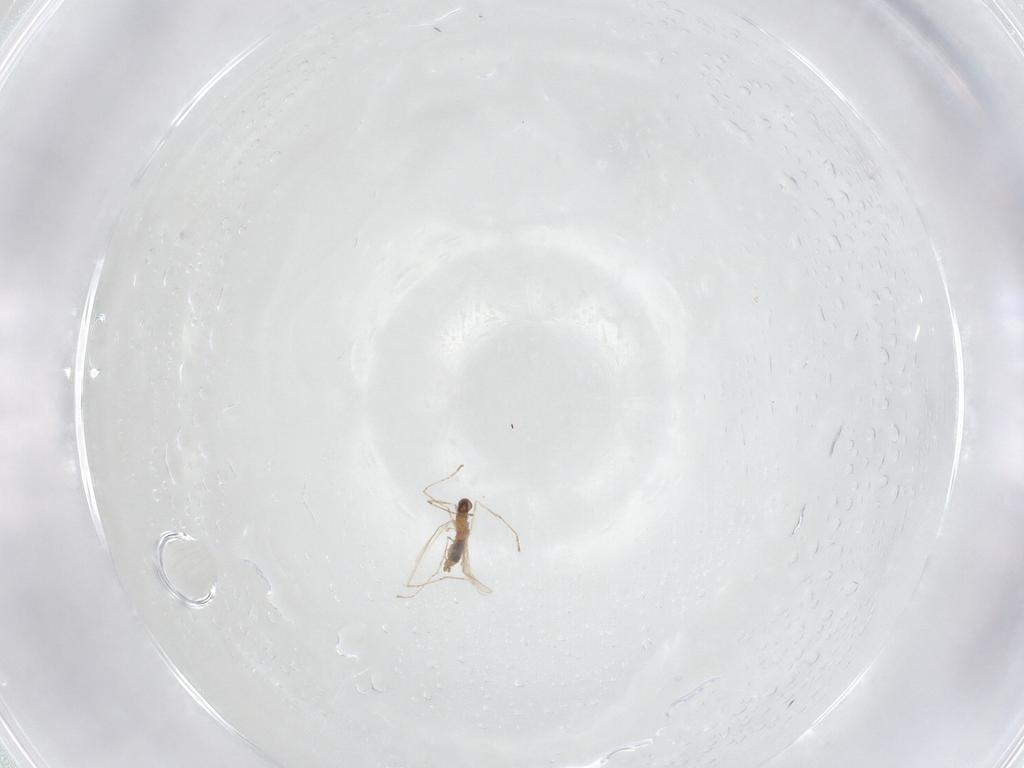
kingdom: Animalia
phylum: Arthropoda
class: Insecta
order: Diptera
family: Cecidomyiidae
